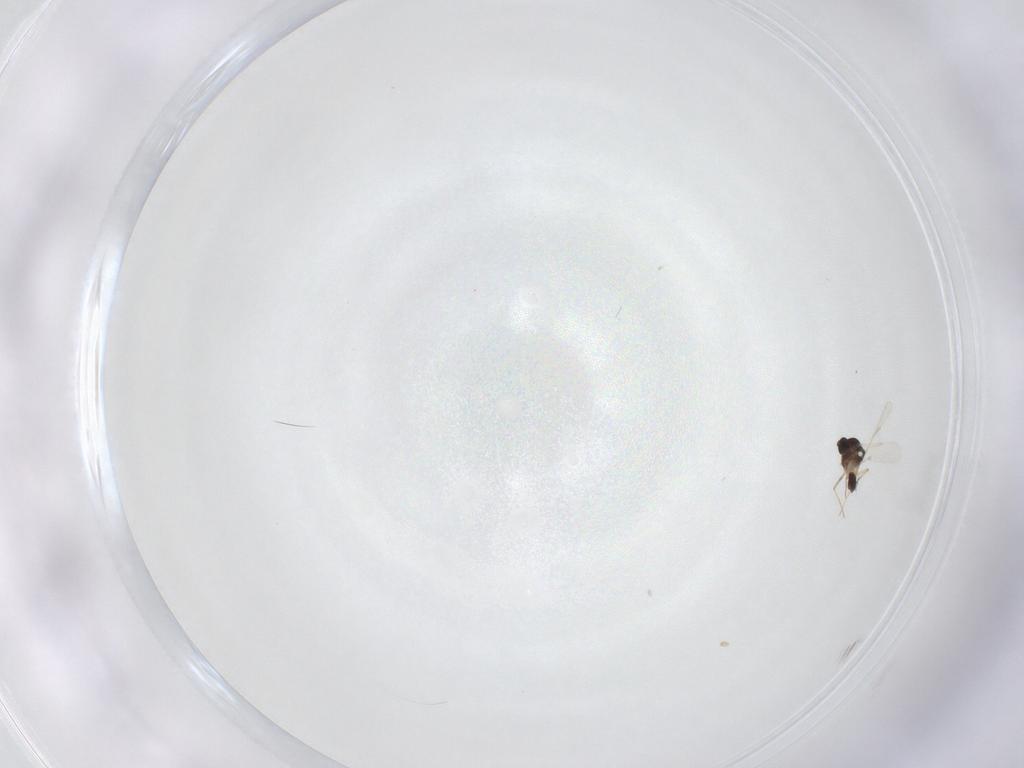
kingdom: Animalia
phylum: Arthropoda
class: Insecta
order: Diptera
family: Ceratopogonidae
